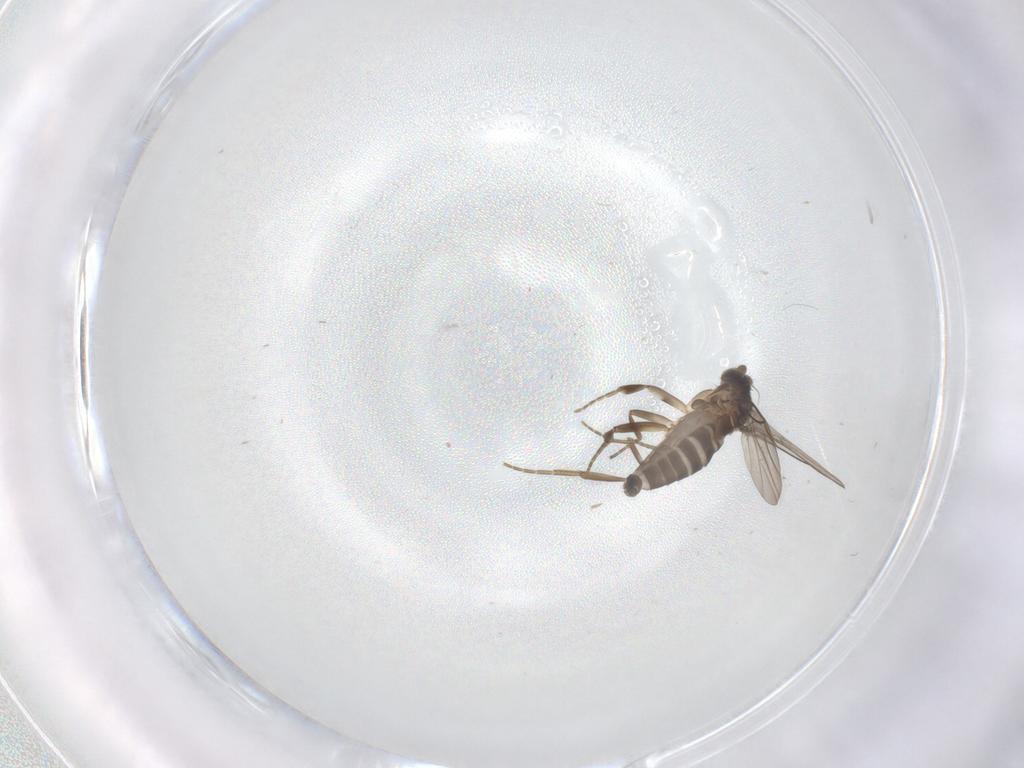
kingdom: Animalia
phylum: Arthropoda
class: Insecta
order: Diptera
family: Phoridae
